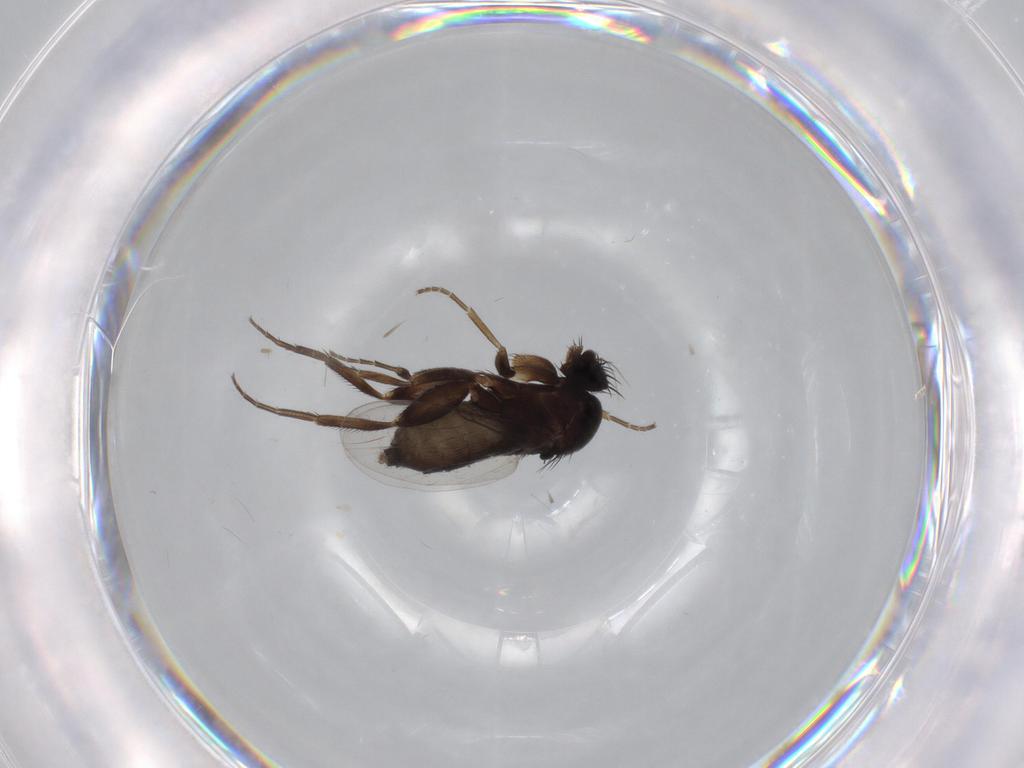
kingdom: Animalia
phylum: Arthropoda
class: Insecta
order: Diptera
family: Phoridae
